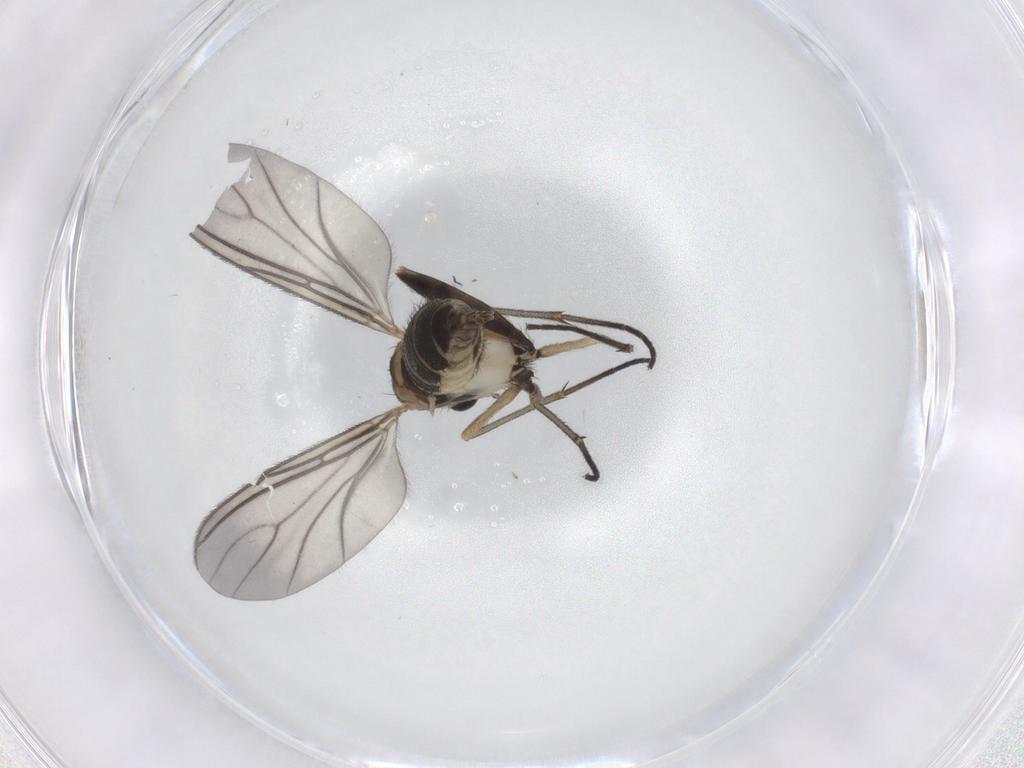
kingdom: Animalia
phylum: Arthropoda
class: Insecta
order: Diptera
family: Sciaridae
